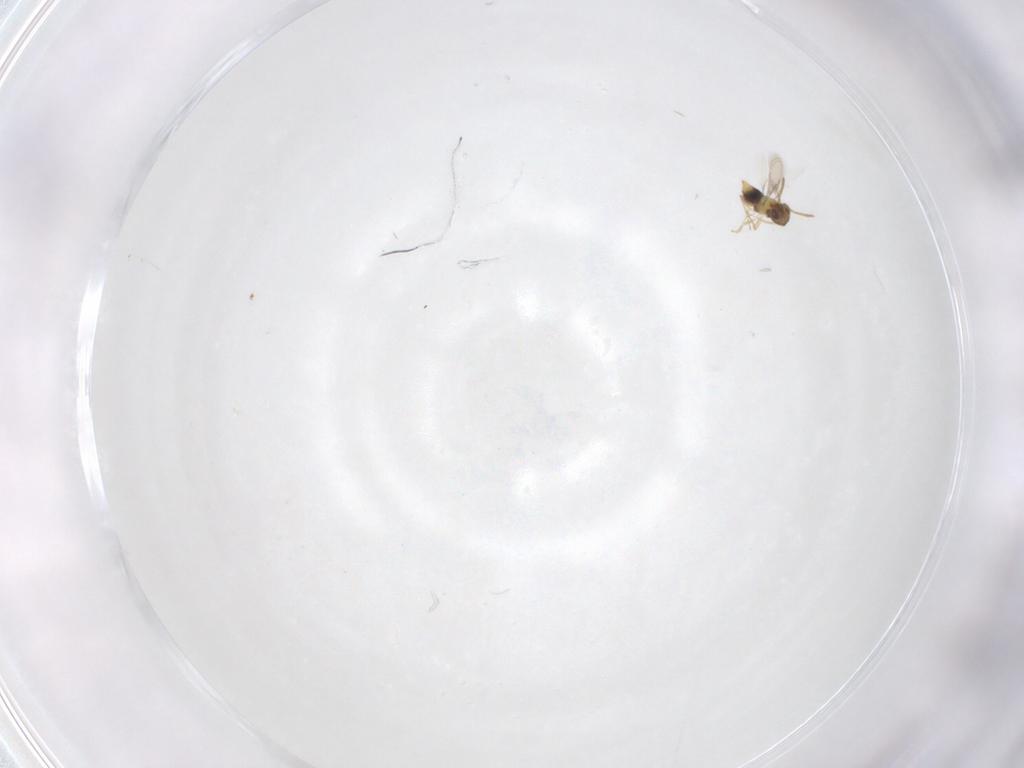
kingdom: Animalia
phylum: Arthropoda
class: Insecta
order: Hymenoptera
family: Aphelinidae
